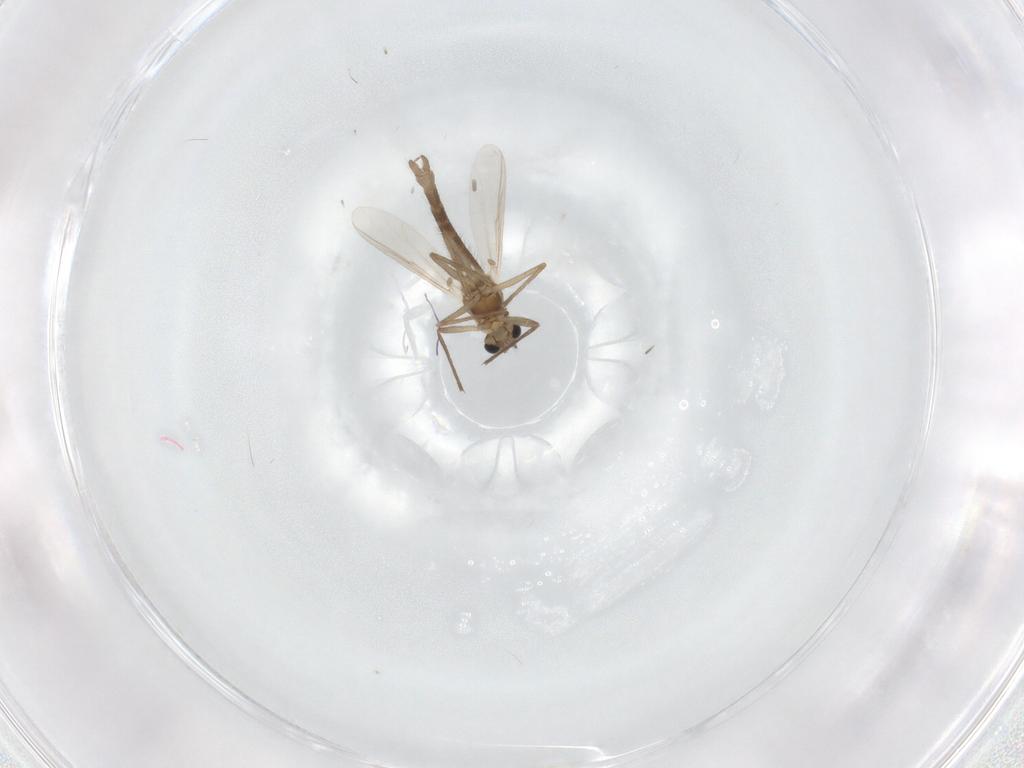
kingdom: Animalia
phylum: Arthropoda
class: Insecta
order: Diptera
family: Chironomidae
